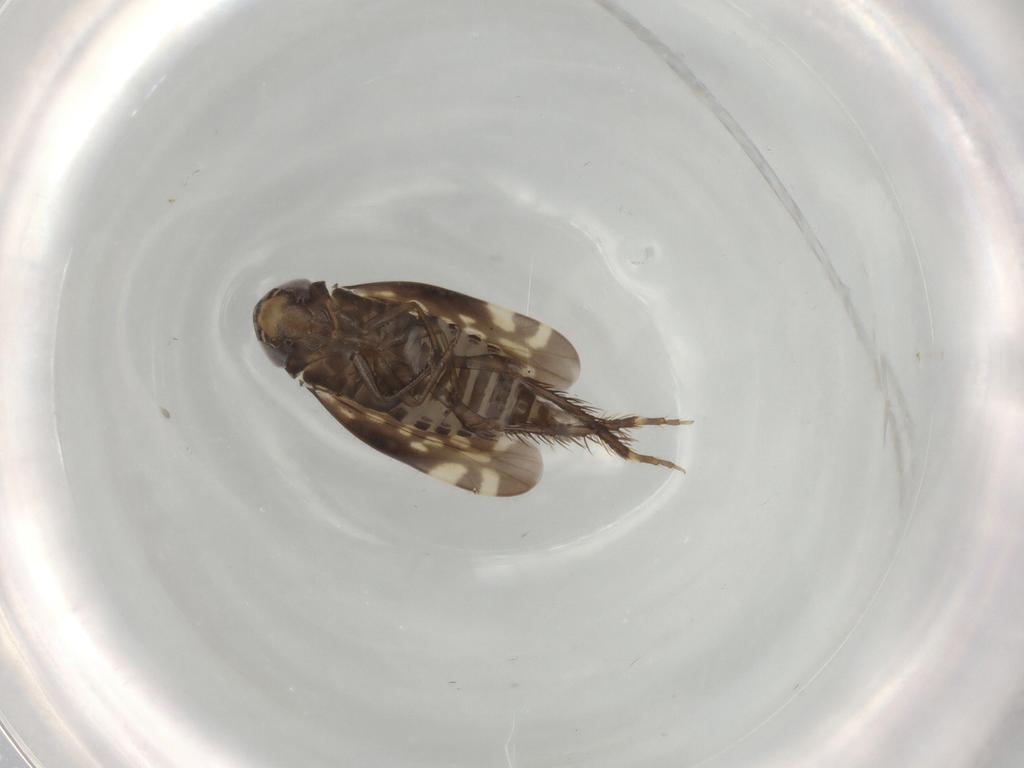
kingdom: Animalia
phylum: Arthropoda
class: Insecta
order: Hemiptera
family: Cicadellidae
